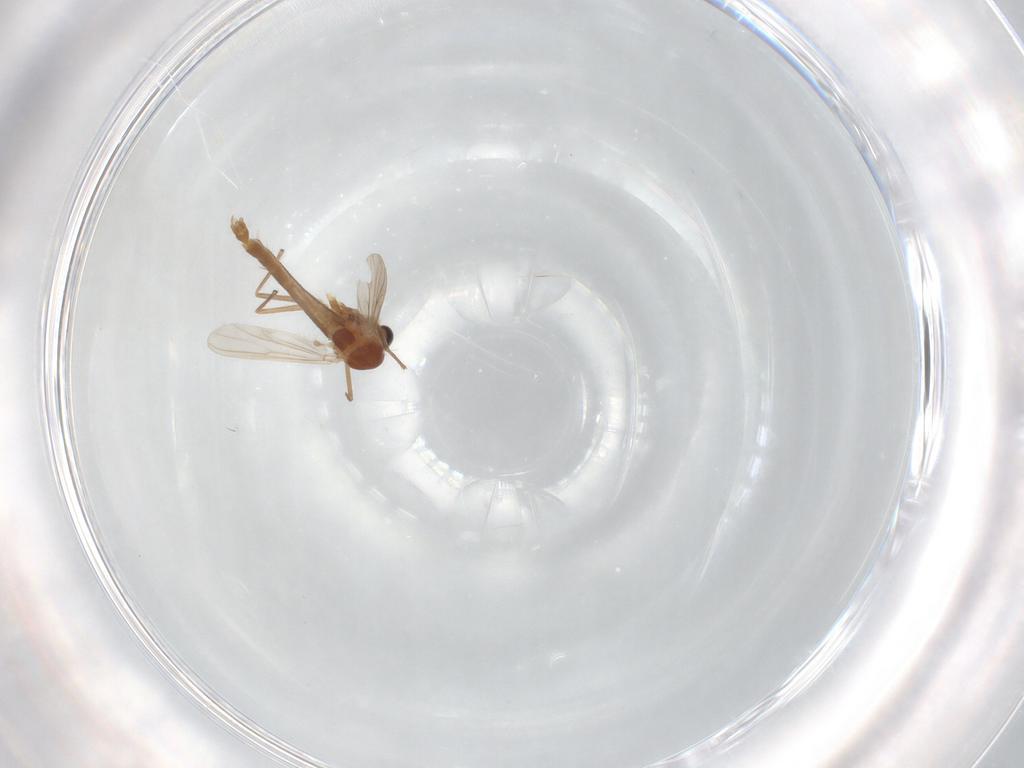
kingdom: Animalia
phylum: Arthropoda
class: Insecta
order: Diptera
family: Chironomidae
